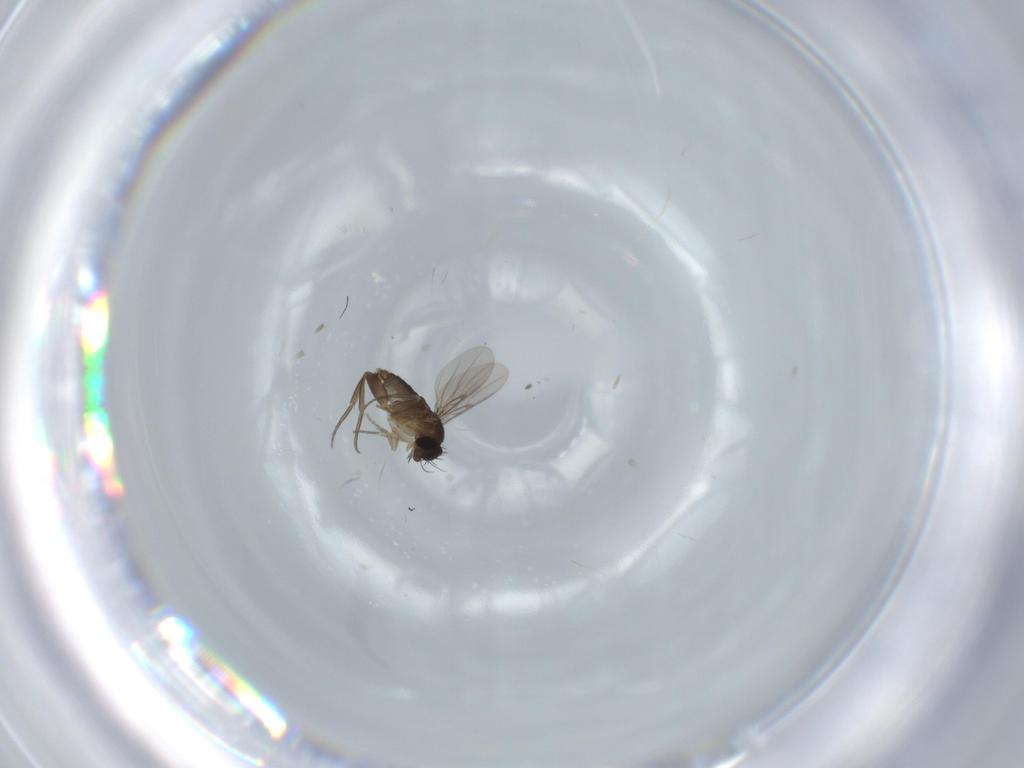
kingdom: Animalia
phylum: Arthropoda
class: Insecta
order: Diptera
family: Phoridae
